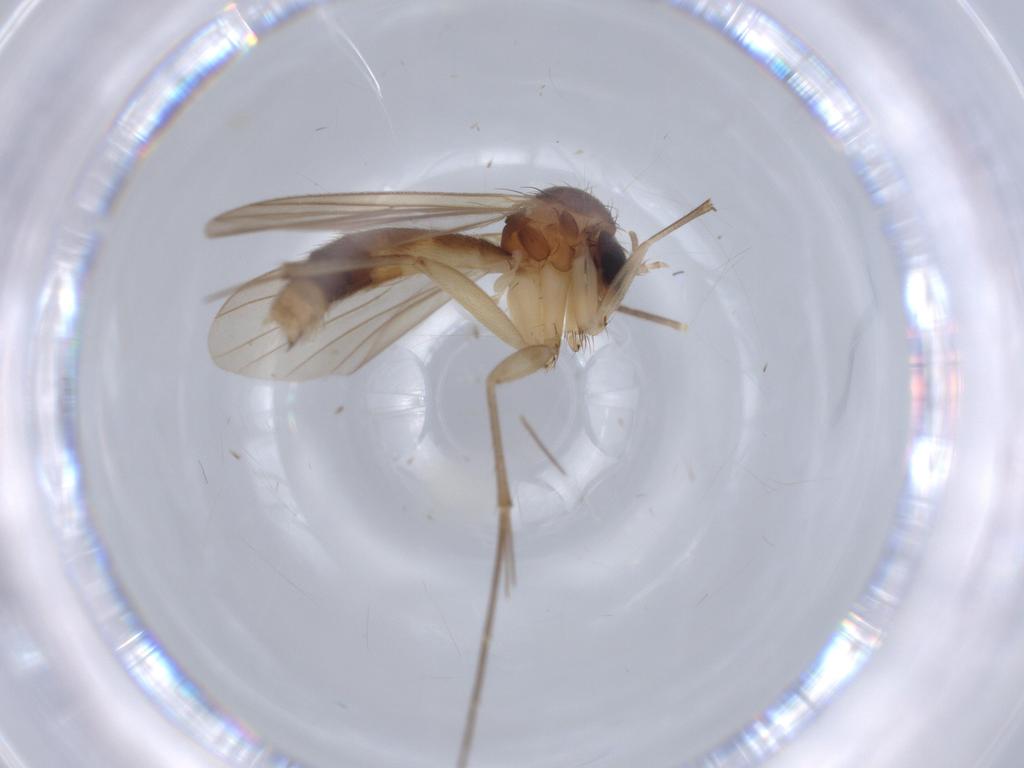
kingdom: Animalia
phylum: Arthropoda
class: Insecta
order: Diptera
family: Mycetophilidae
